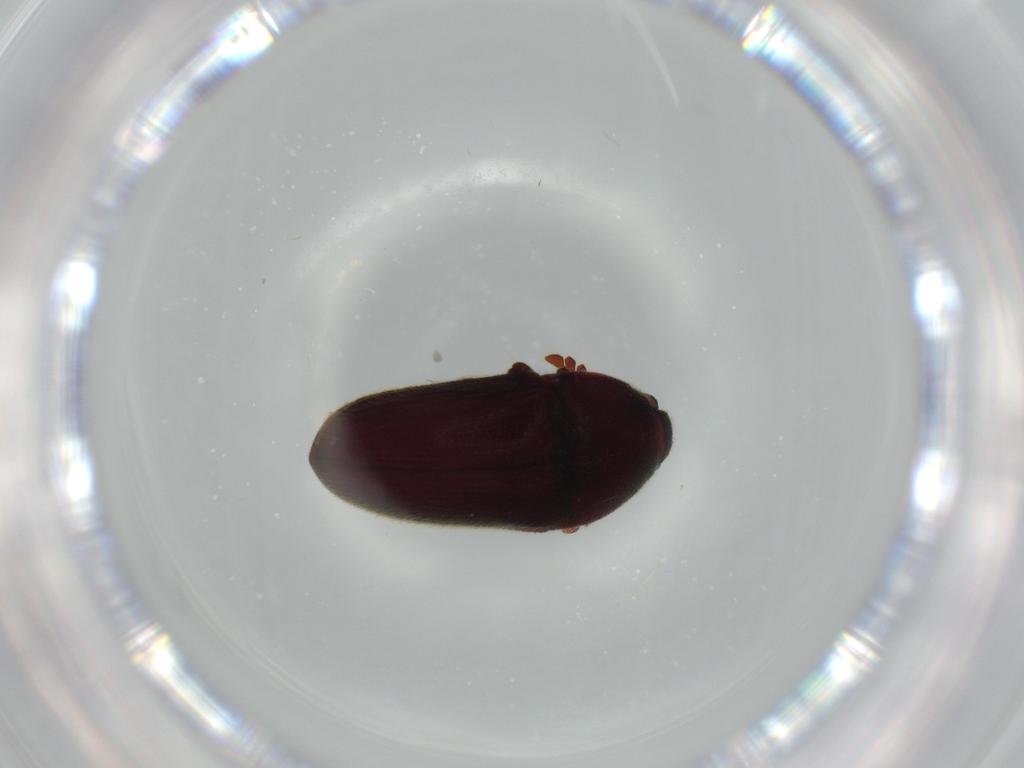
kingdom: Animalia
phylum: Arthropoda
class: Insecta
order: Coleoptera
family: Throscidae
